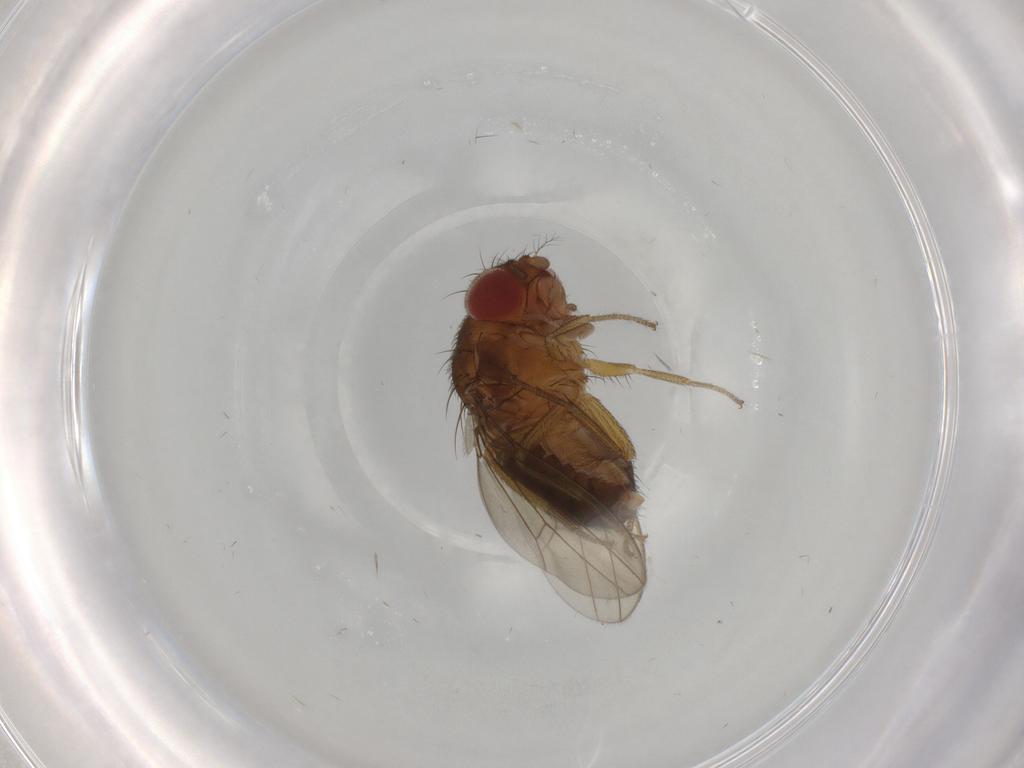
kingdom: Animalia
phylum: Arthropoda
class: Insecta
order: Diptera
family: Drosophilidae
